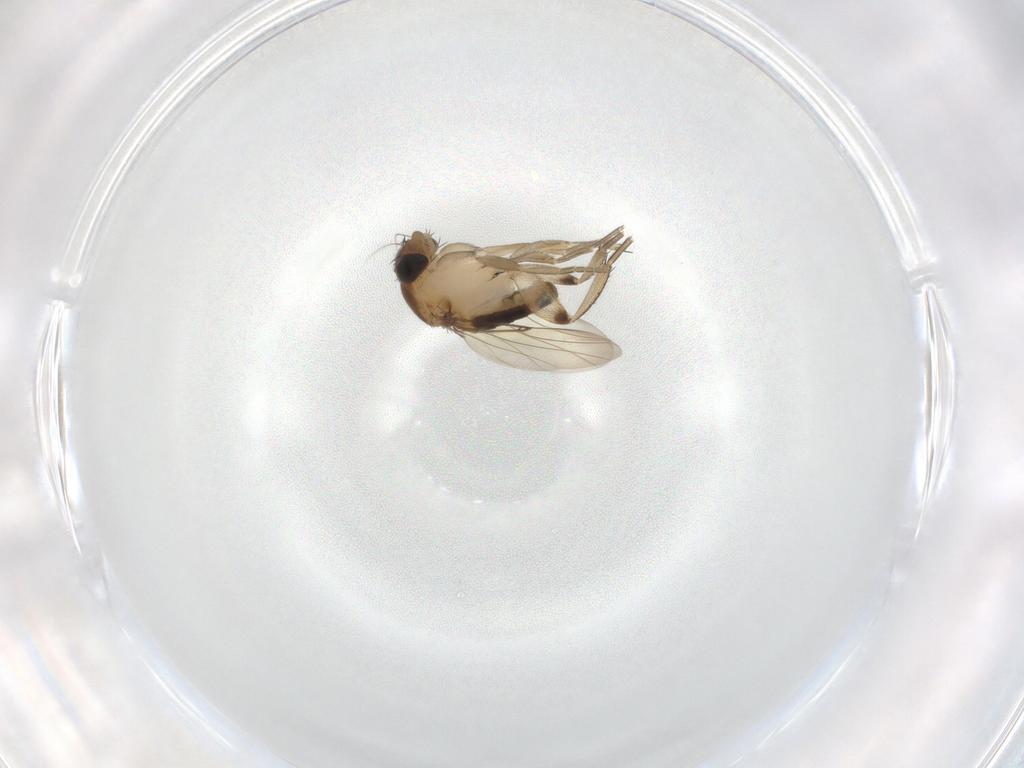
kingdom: Animalia
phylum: Arthropoda
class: Insecta
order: Diptera
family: Phoridae
